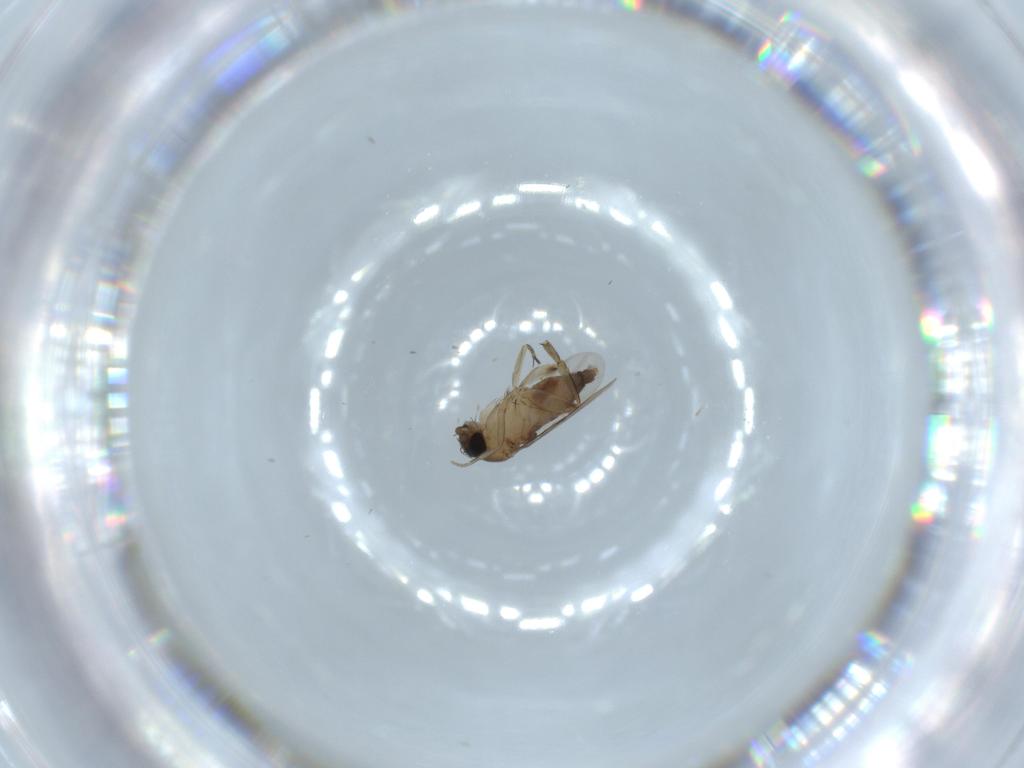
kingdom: Animalia
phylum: Arthropoda
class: Insecta
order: Diptera
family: Phoridae
